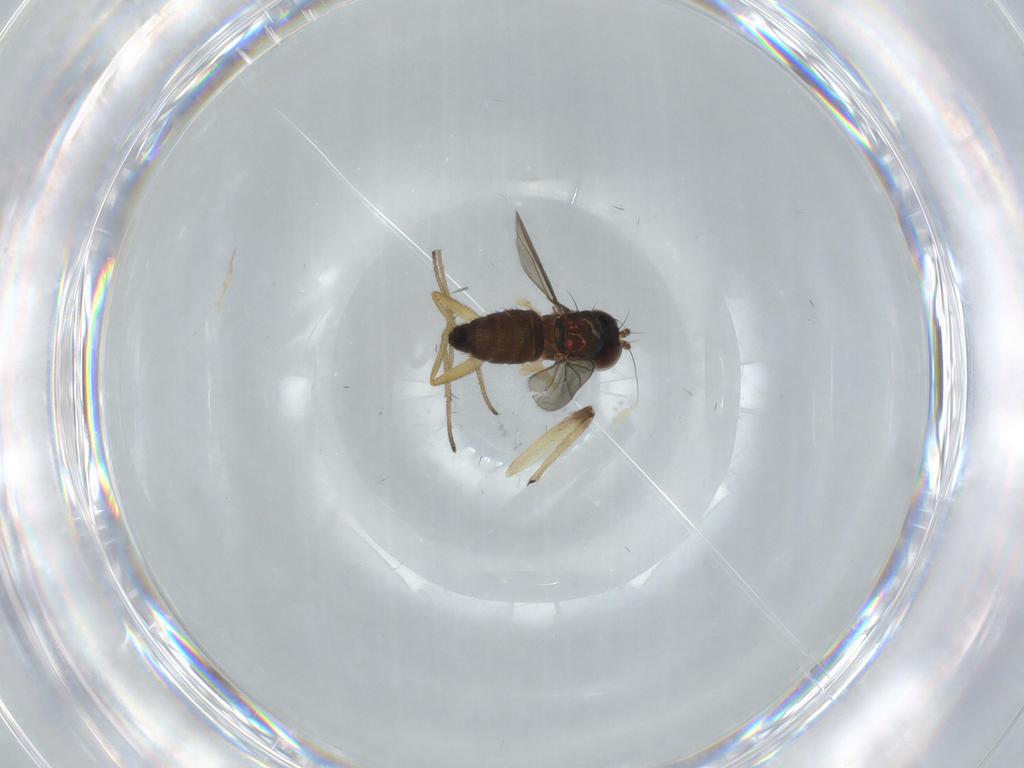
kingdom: Animalia
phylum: Arthropoda
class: Insecta
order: Diptera
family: Dolichopodidae
